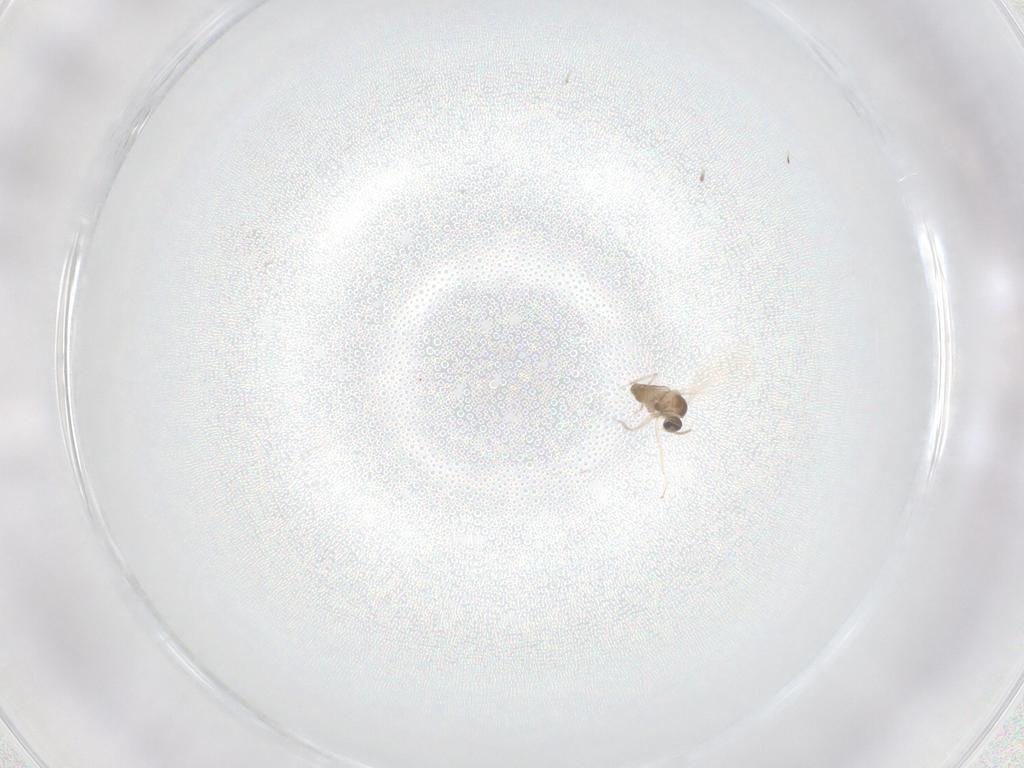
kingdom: Animalia
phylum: Arthropoda
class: Insecta
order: Diptera
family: Cecidomyiidae
